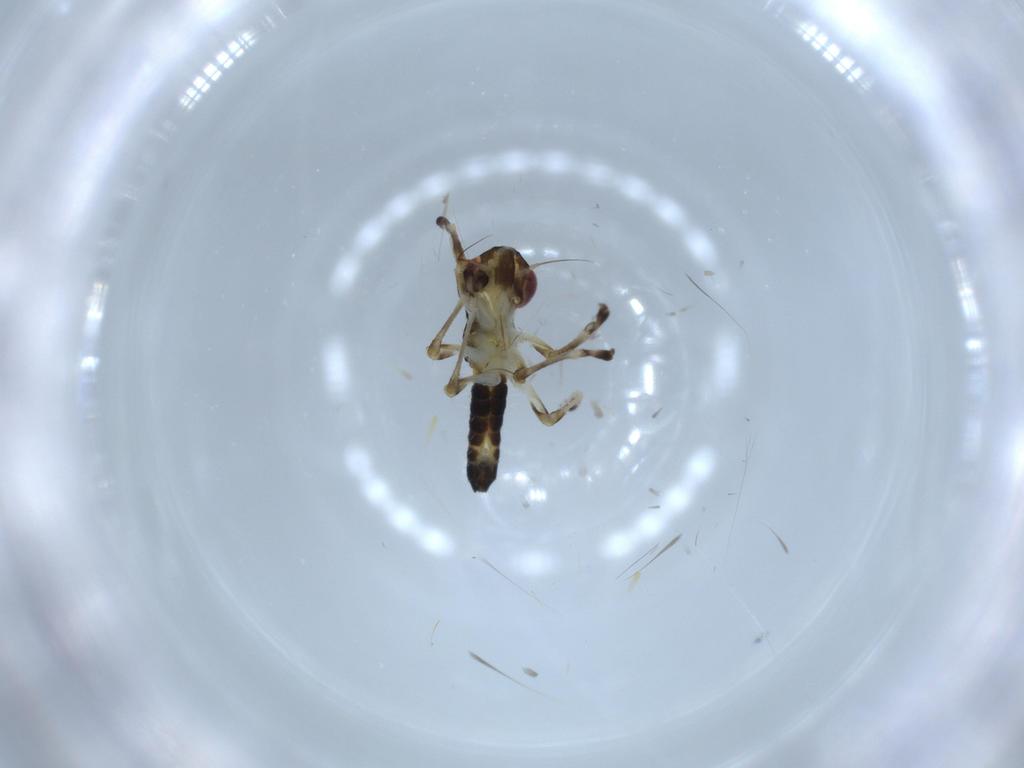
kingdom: Animalia
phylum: Arthropoda
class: Insecta
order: Hemiptera
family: Cicadellidae
